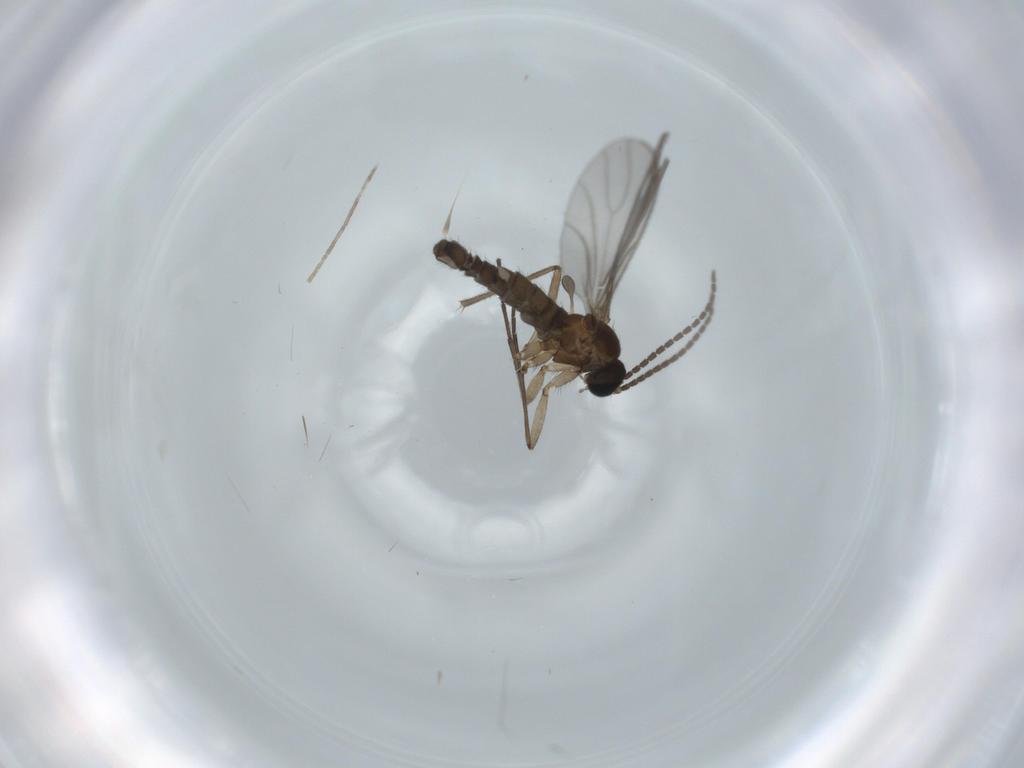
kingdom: Animalia
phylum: Arthropoda
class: Insecta
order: Diptera
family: Sciaridae
